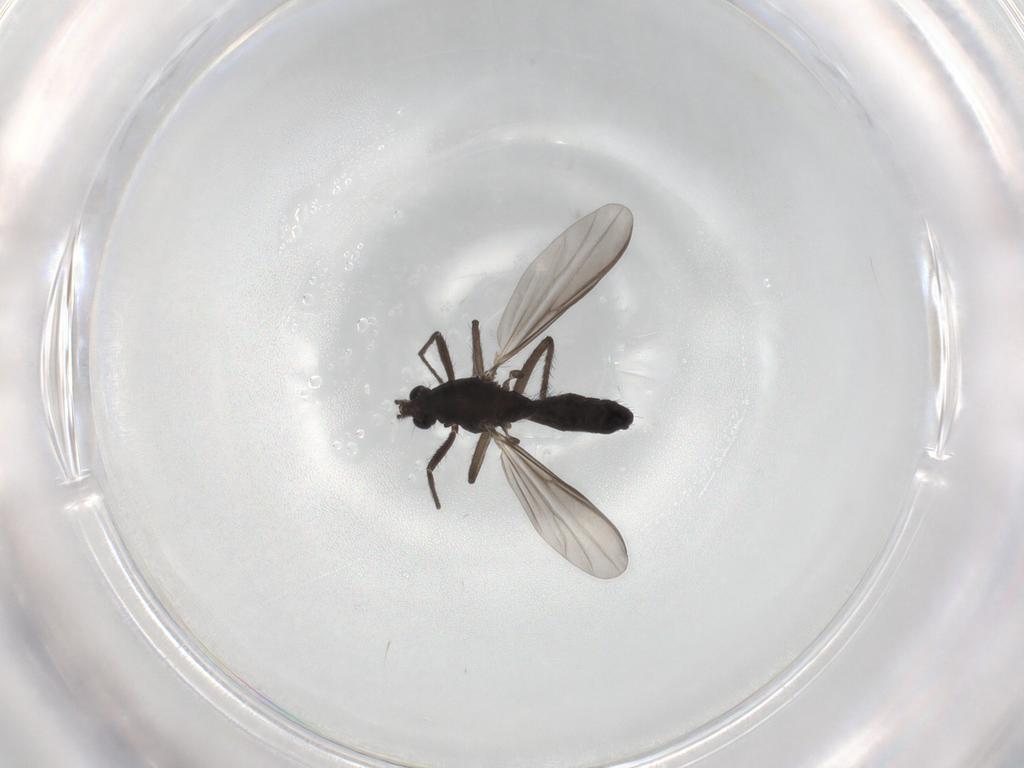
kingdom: Animalia
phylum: Arthropoda
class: Insecta
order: Diptera
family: Chironomidae
